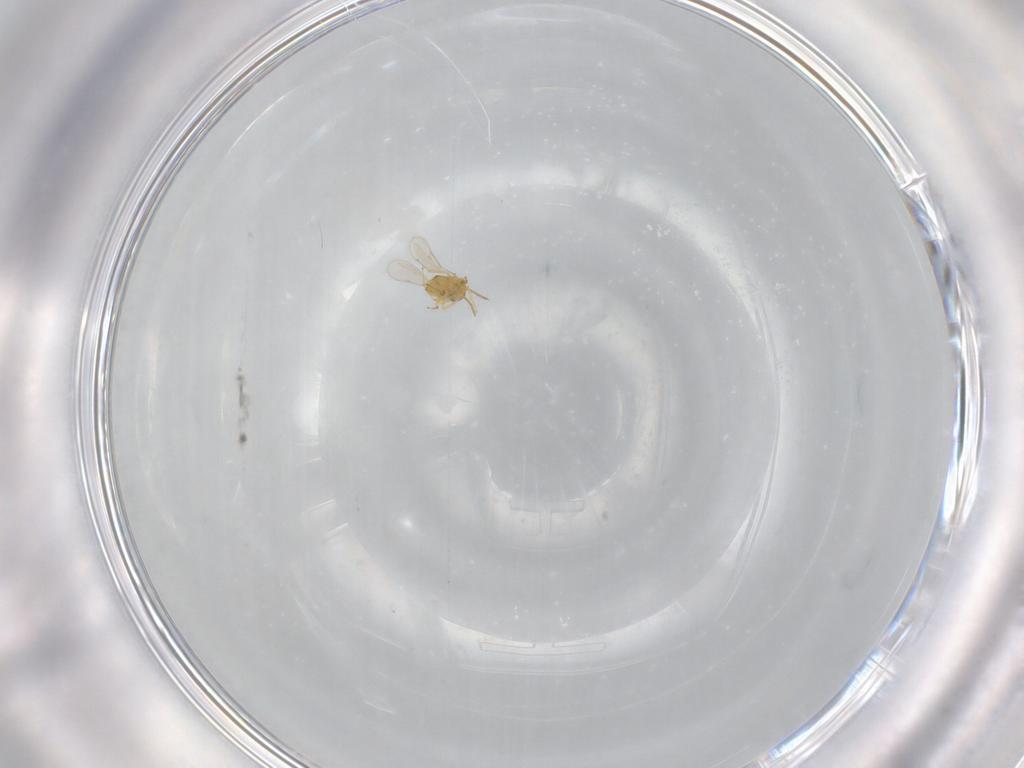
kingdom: Animalia
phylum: Arthropoda
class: Insecta
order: Hymenoptera
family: Aphelinidae
